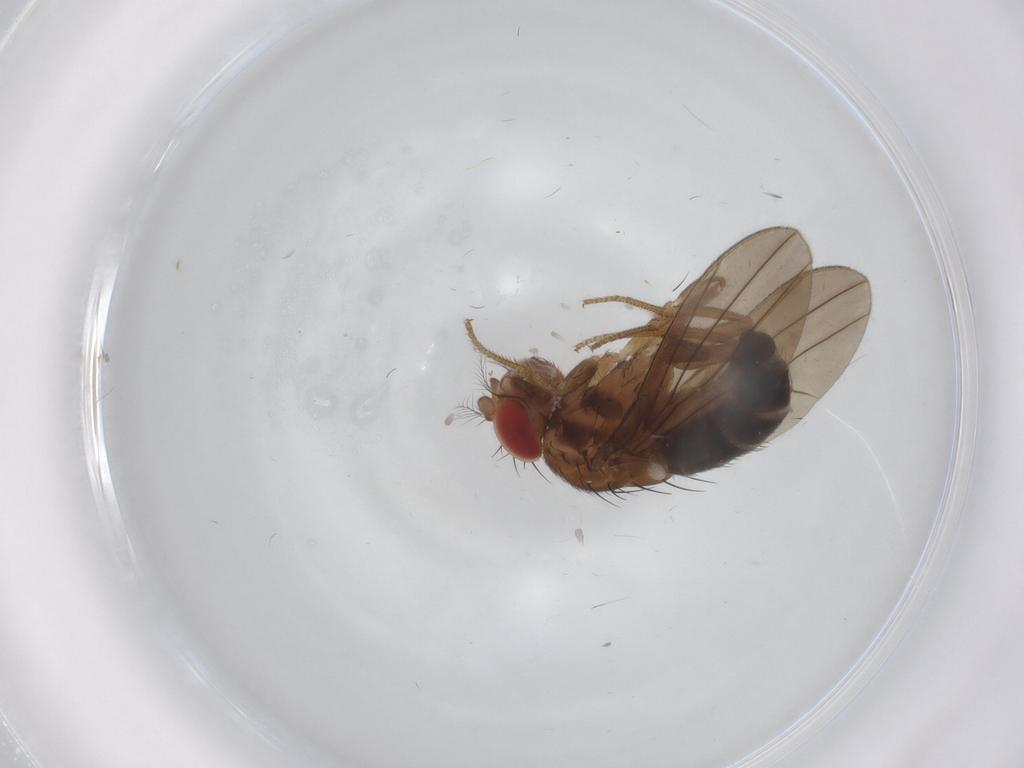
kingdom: Animalia
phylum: Arthropoda
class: Insecta
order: Diptera
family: Drosophilidae
